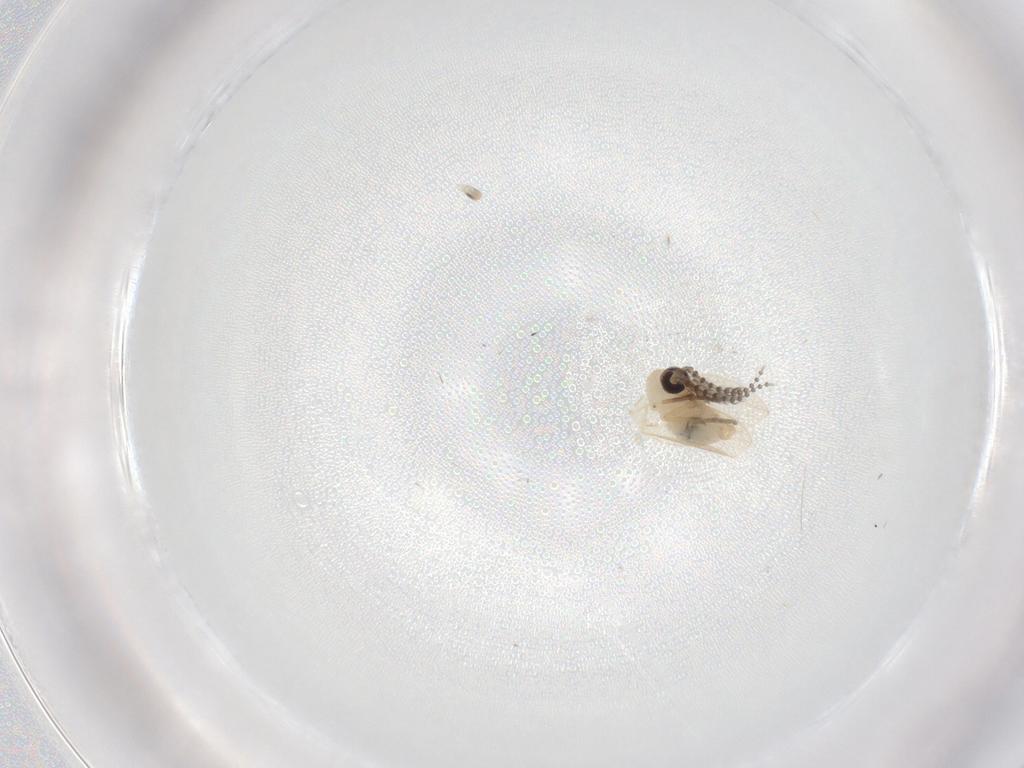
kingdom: Animalia
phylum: Arthropoda
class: Insecta
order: Diptera
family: Psychodidae
